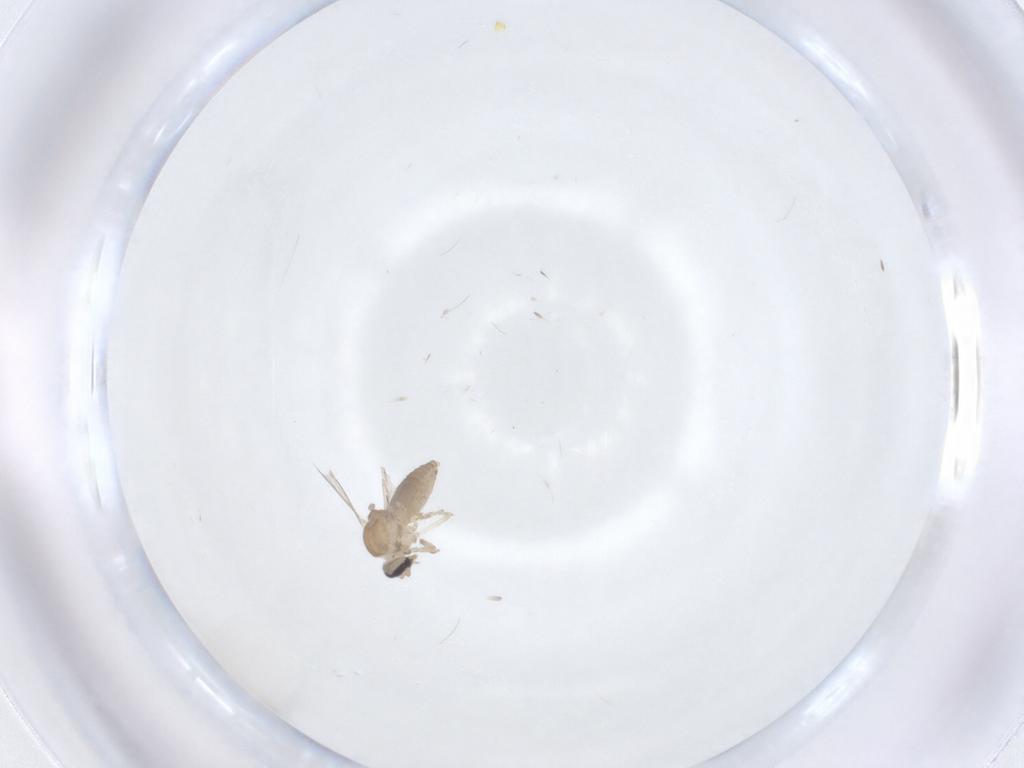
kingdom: Animalia
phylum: Arthropoda
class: Insecta
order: Diptera
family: Ceratopogonidae
